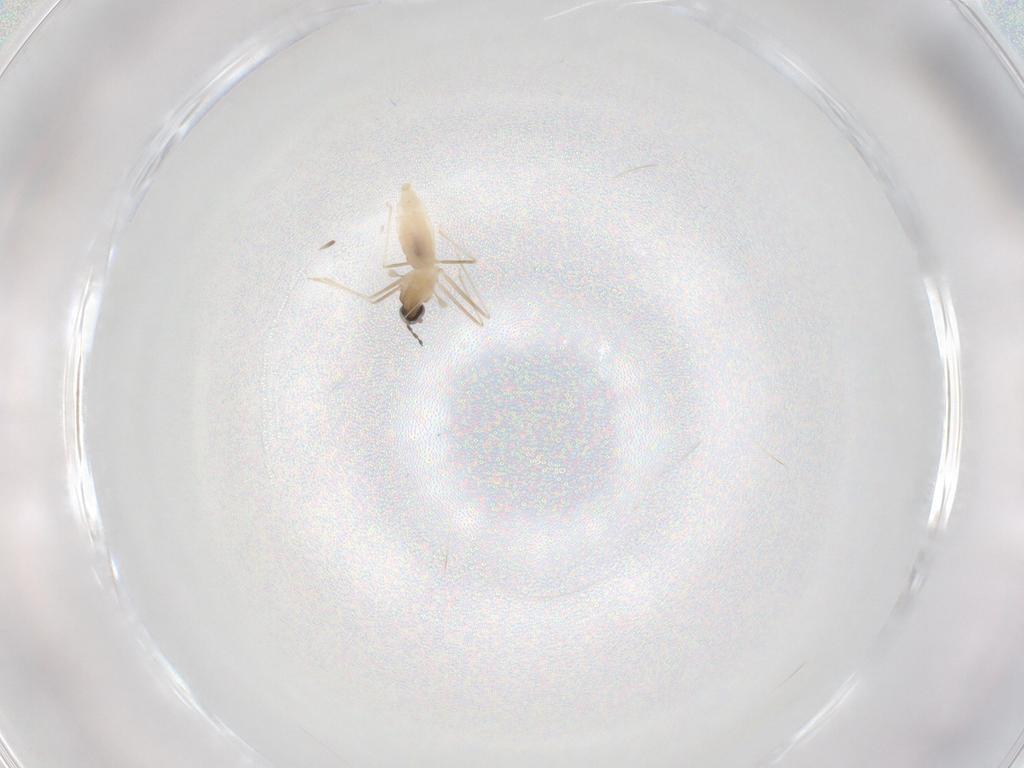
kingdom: Animalia
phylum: Arthropoda
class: Insecta
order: Diptera
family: Cecidomyiidae
